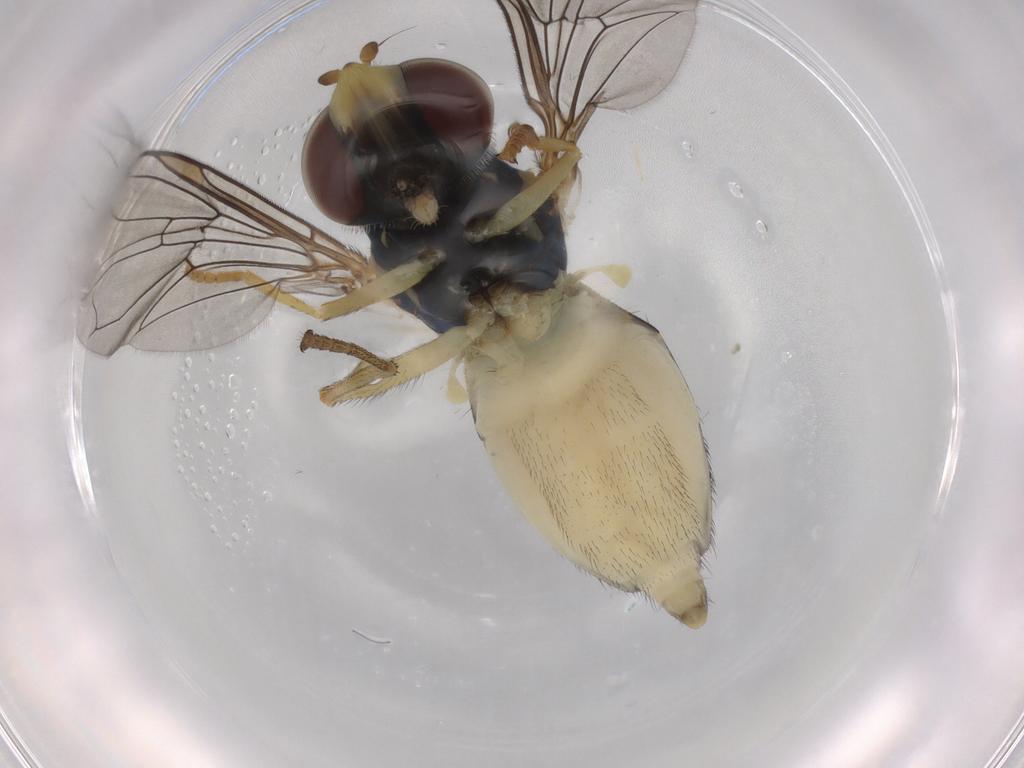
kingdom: Animalia
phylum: Arthropoda
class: Insecta
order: Diptera
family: Syrphidae
